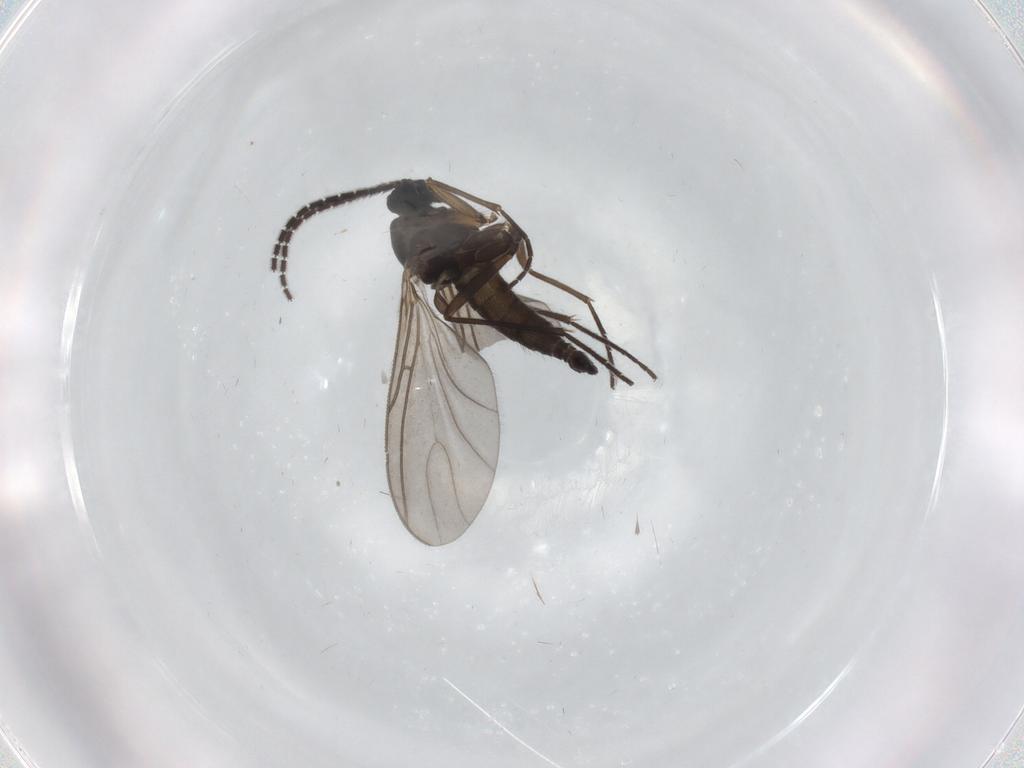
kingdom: Animalia
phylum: Arthropoda
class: Insecta
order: Diptera
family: Sciaridae
